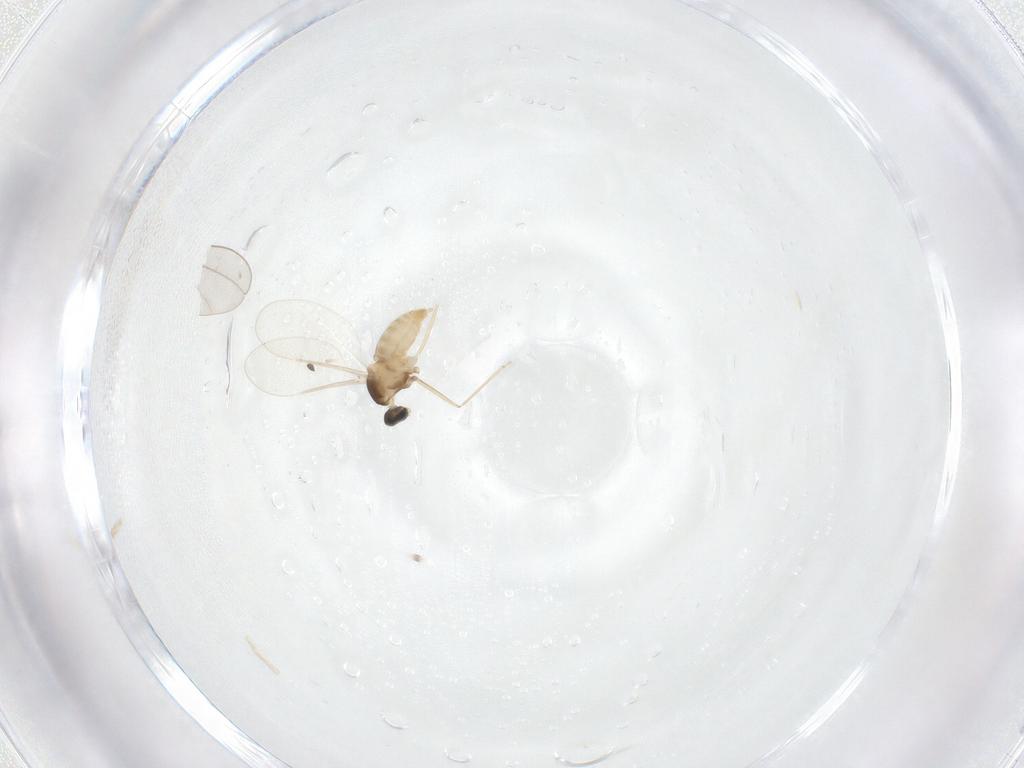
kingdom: Animalia
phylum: Arthropoda
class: Insecta
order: Diptera
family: Cecidomyiidae
